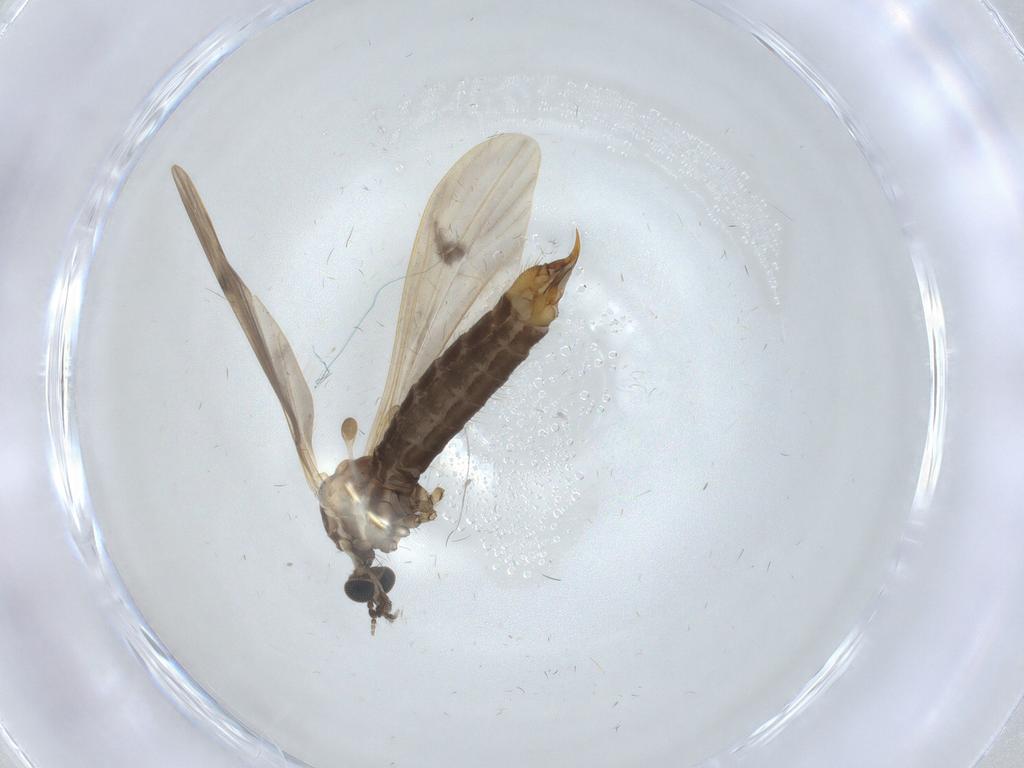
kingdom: Animalia
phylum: Arthropoda
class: Insecta
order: Diptera
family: Limoniidae
